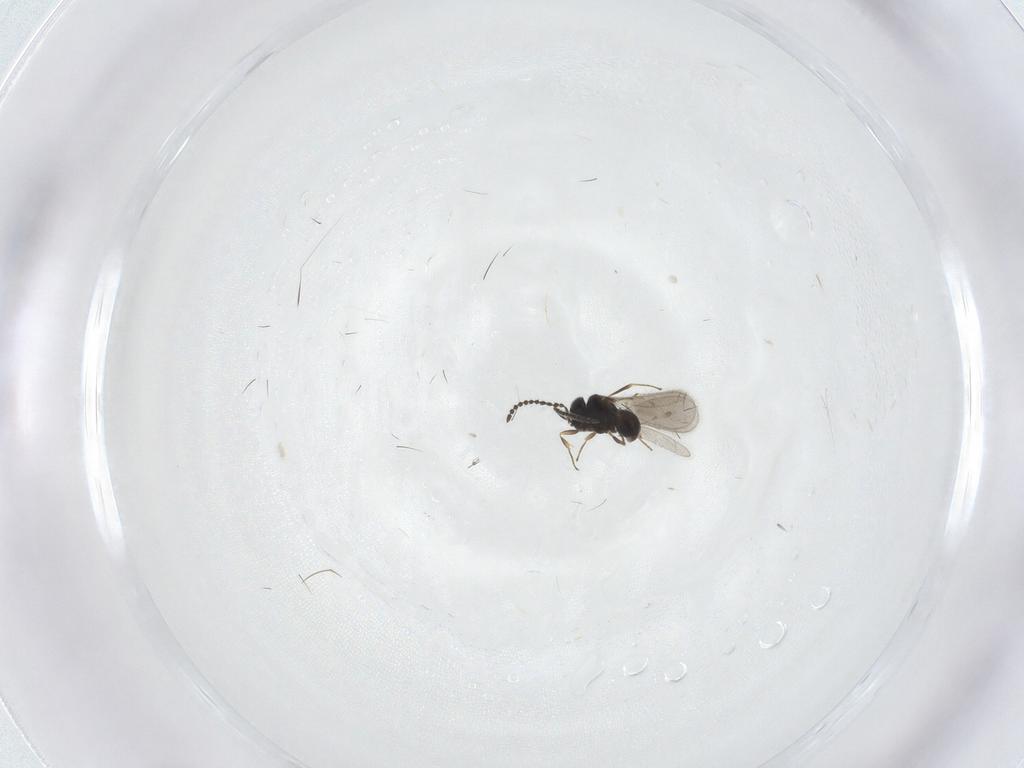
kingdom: Animalia
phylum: Arthropoda
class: Insecta
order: Hymenoptera
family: Scelionidae
